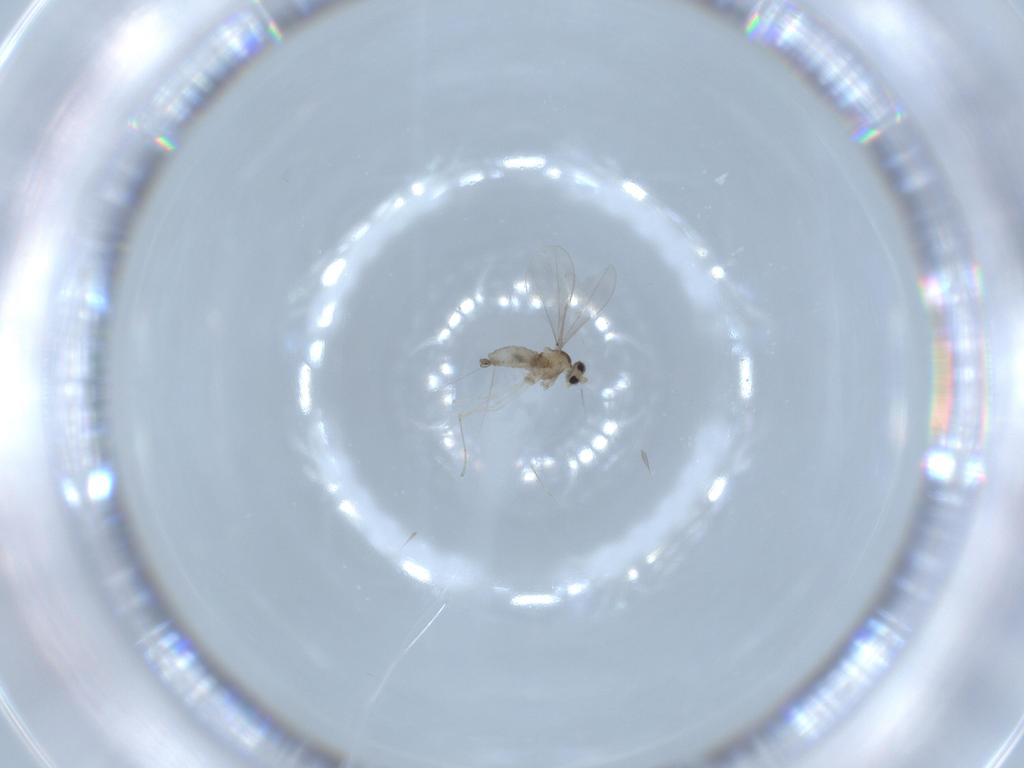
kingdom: Animalia
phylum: Arthropoda
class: Insecta
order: Diptera
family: Cecidomyiidae
